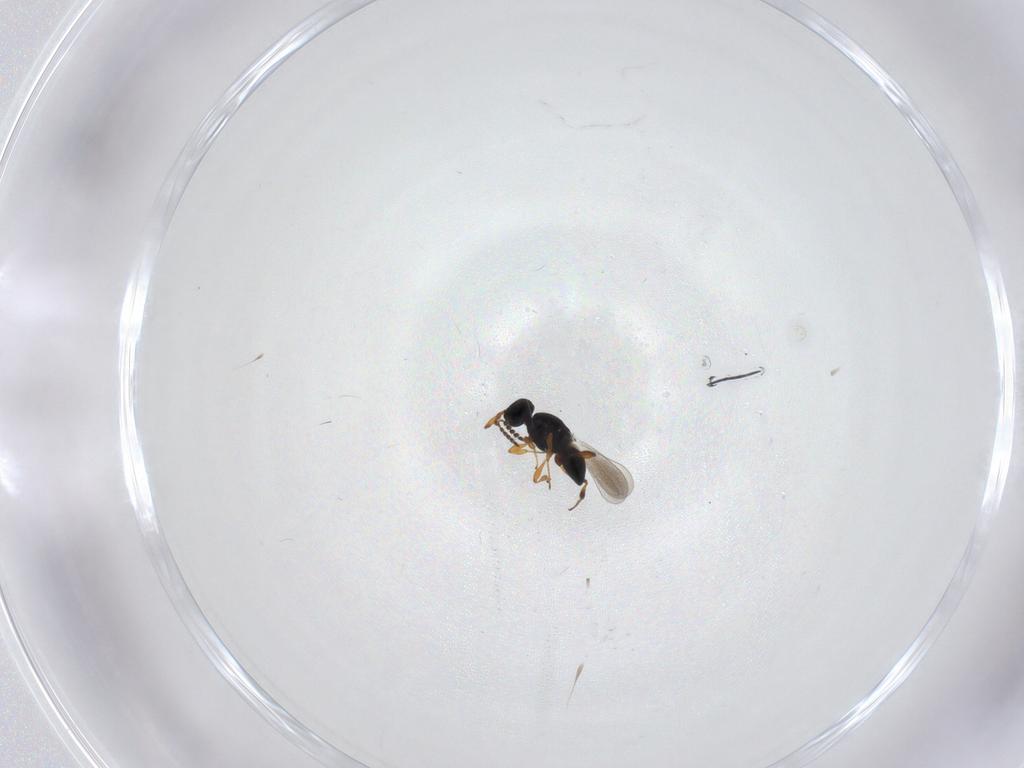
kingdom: Animalia
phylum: Arthropoda
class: Insecta
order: Hymenoptera
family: Platygastridae
